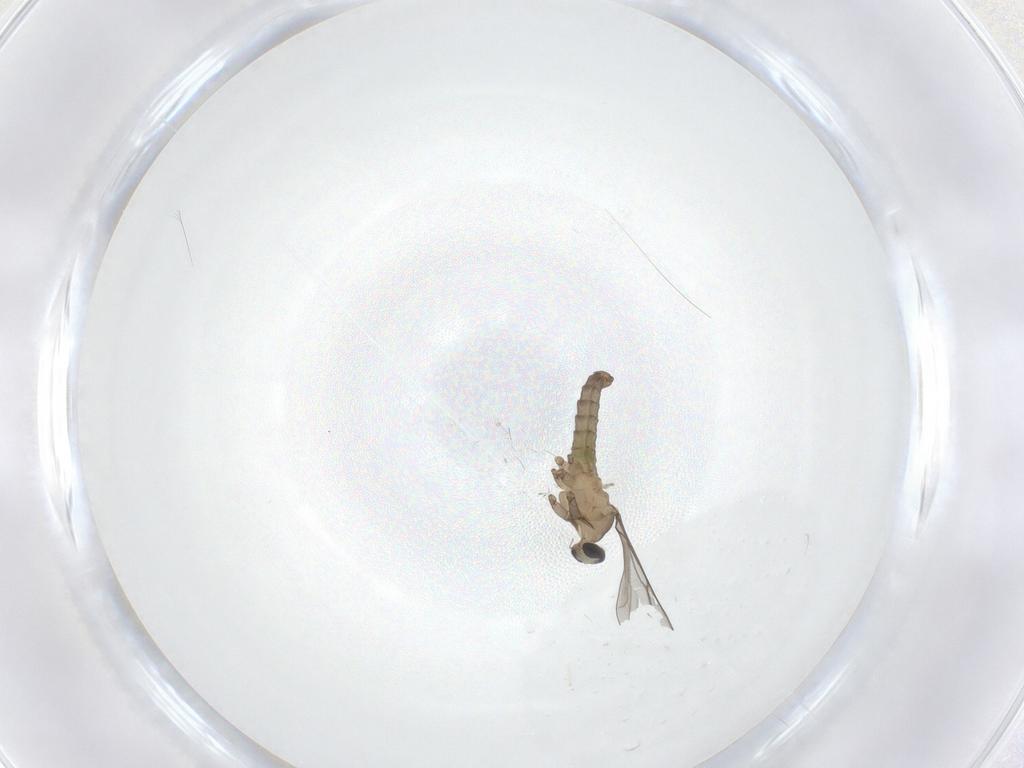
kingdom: Animalia
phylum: Arthropoda
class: Insecta
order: Diptera
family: Cecidomyiidae
